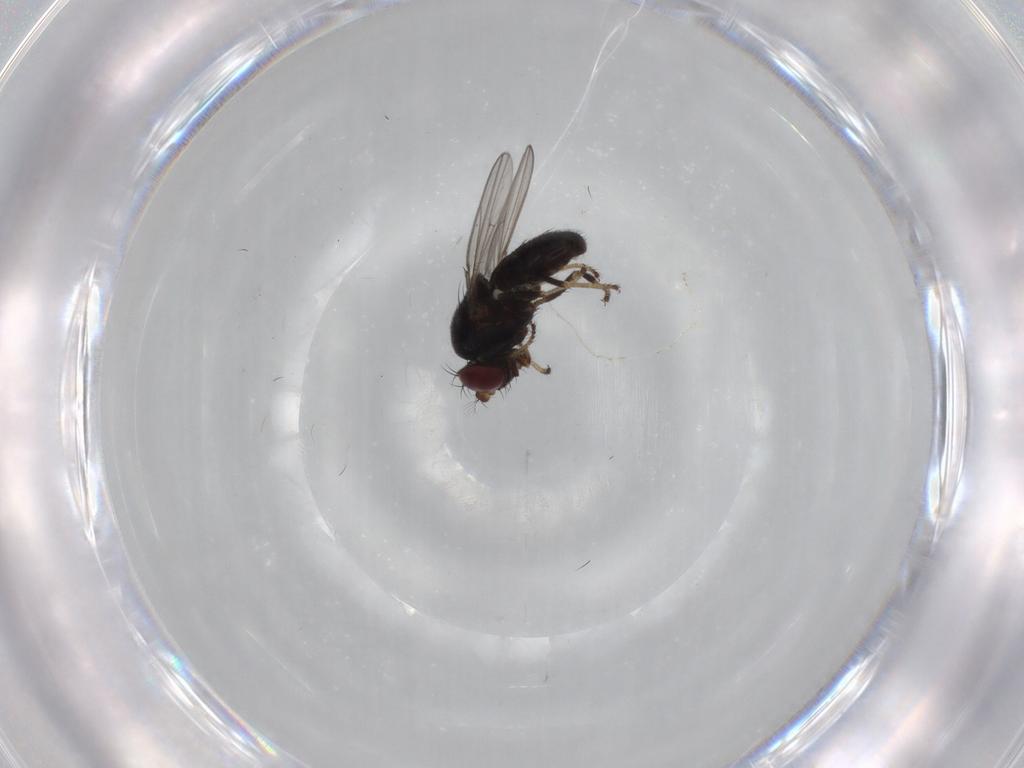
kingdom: Animalia
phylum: Arthropoda
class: Insecta
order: Diptera
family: Ephydridae
